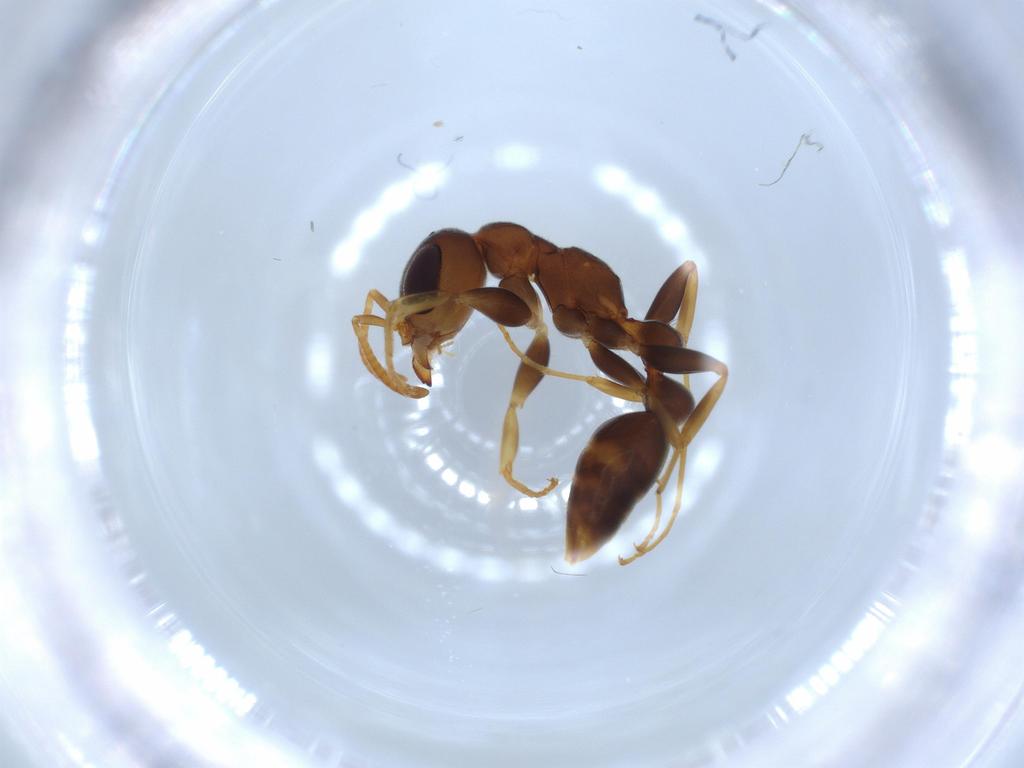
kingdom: Animalia
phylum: Arthropoda
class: Insecta
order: Hymenoptera
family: Formicidae
